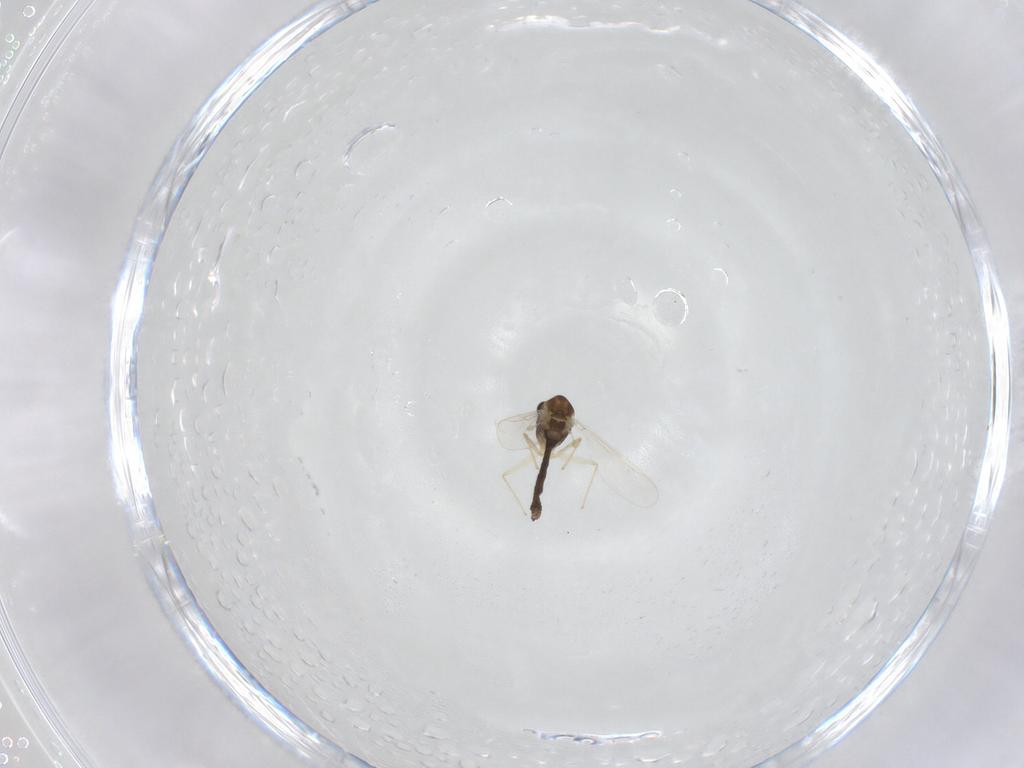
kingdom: Animalia
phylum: Arthropoda
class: Insecta
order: Diptera
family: Chironomidae
